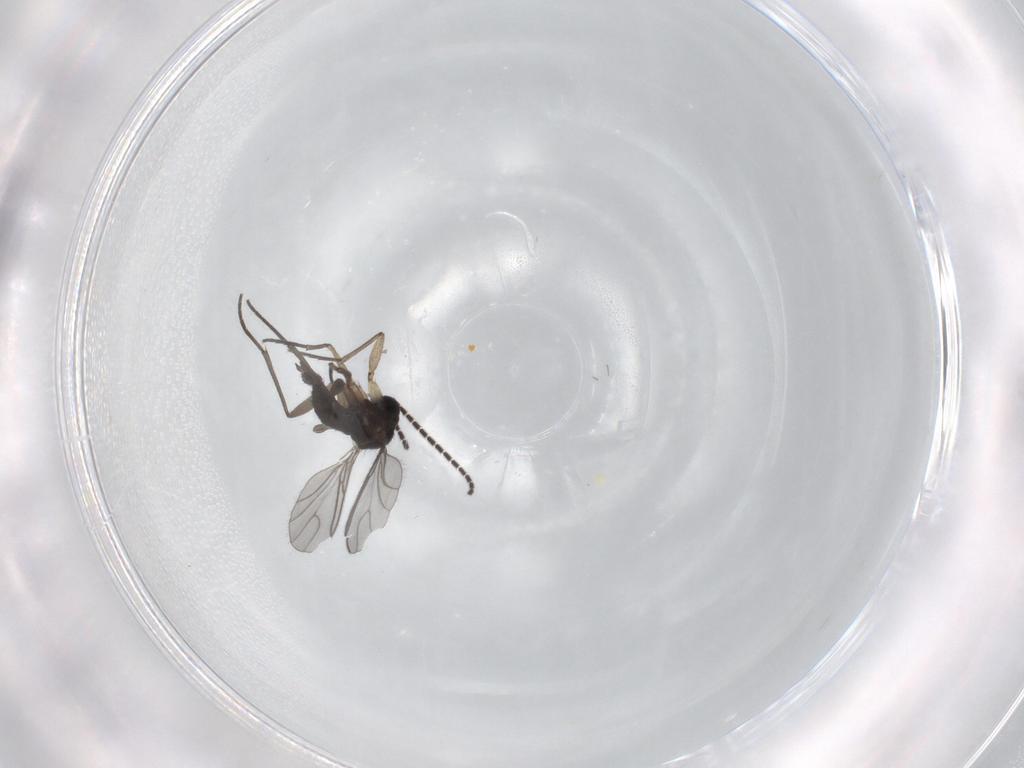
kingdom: Animalia
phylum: Arthropoda
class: Insecta
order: Diptera
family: Sciaridae
